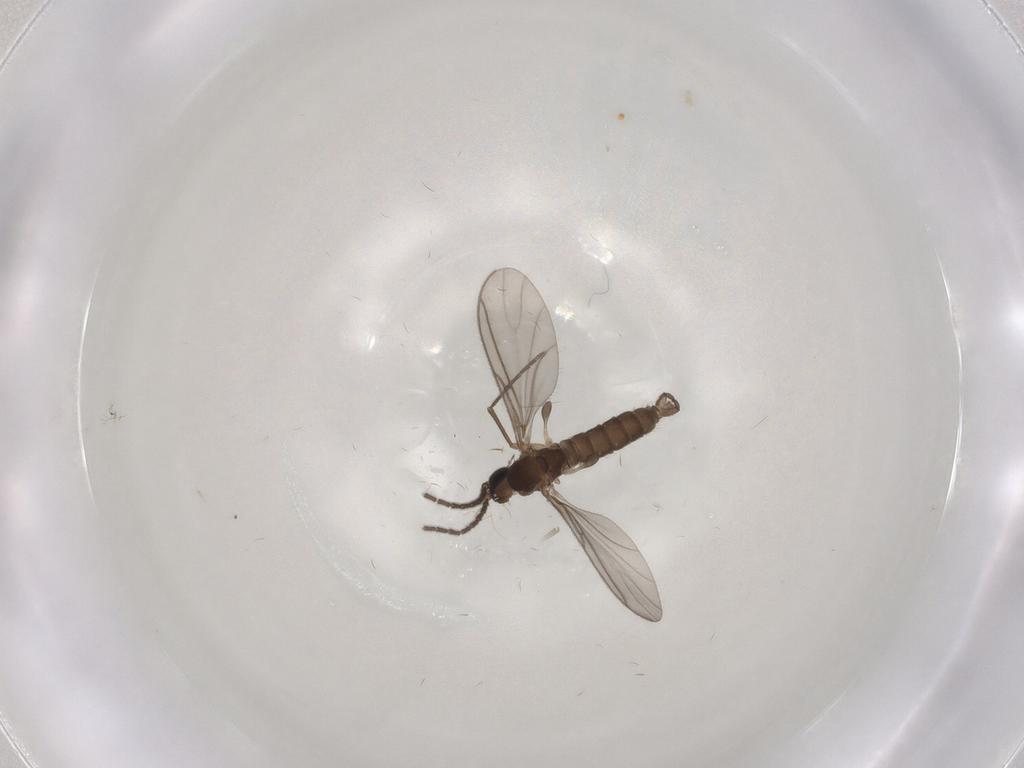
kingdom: Animalia
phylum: Arthropoda
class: Insecta
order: Diptera
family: Sciaridae
